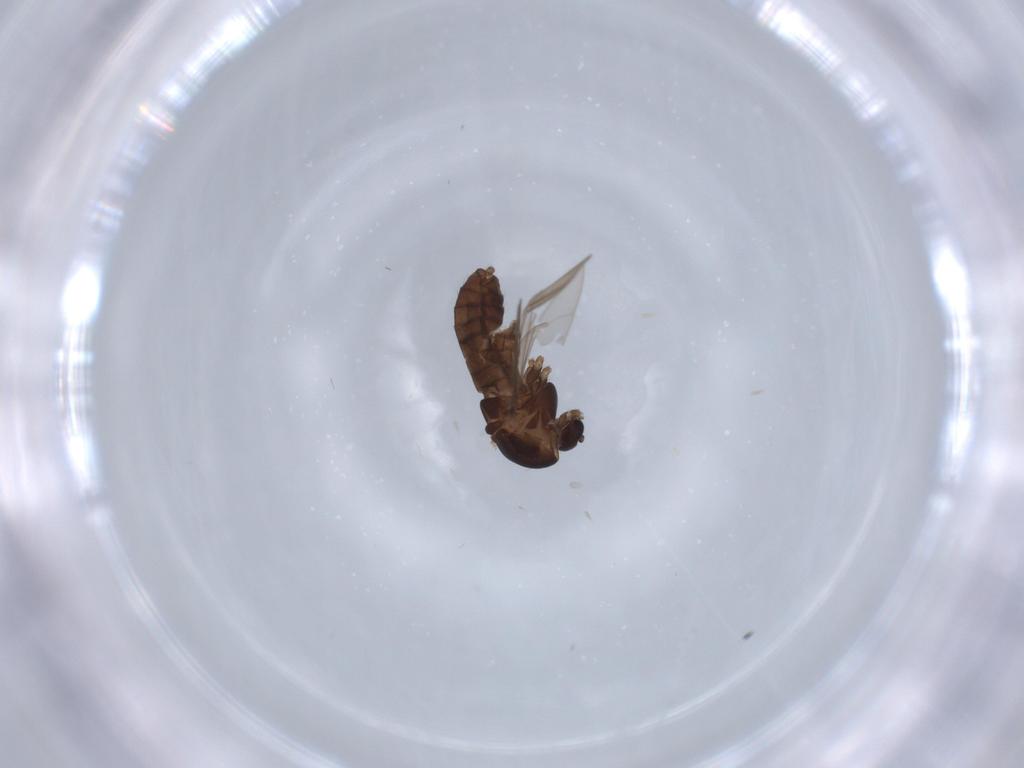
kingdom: Animalia
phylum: Arthropoda
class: Insecta
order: Diptera
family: Chironomidae
